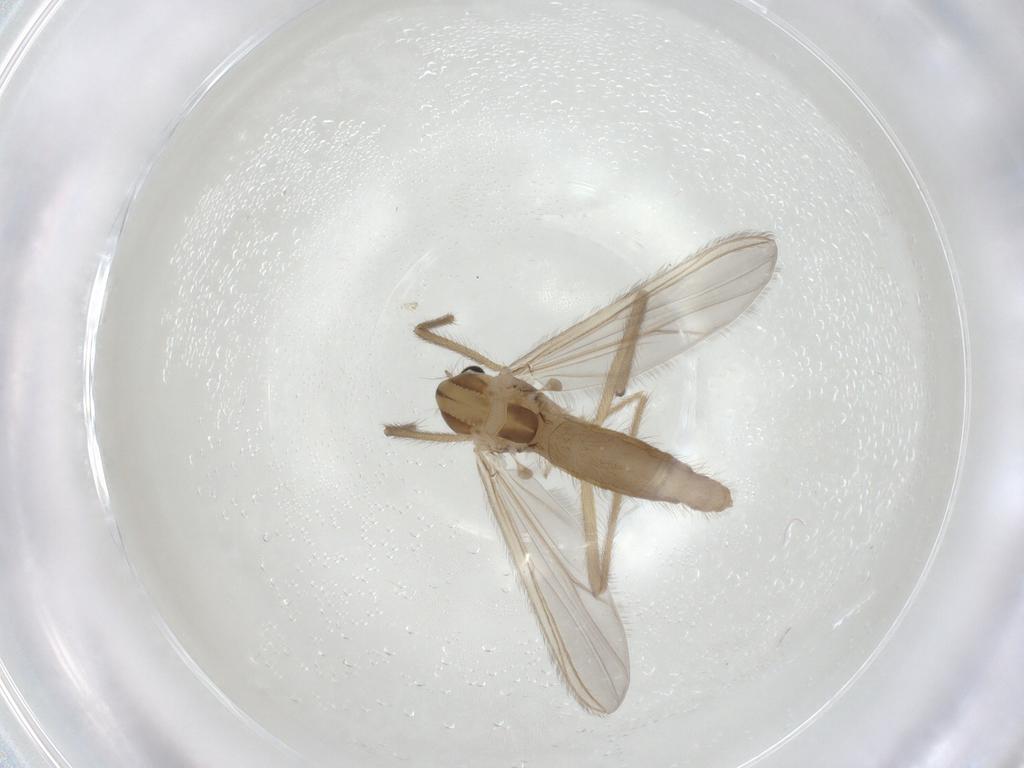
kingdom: Animalia
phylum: Arthropoda
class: Insecta
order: Diptera
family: Chironomidae
